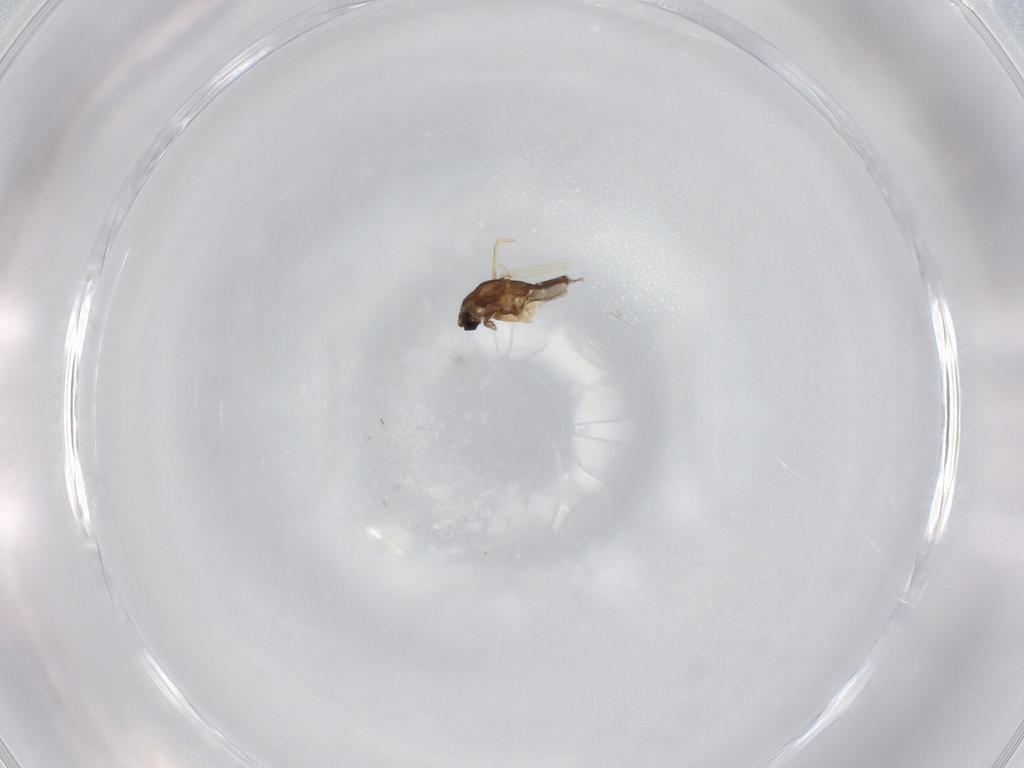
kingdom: Animalia
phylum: Arthropoda
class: Insecta
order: Diptera
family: Chironomidae
